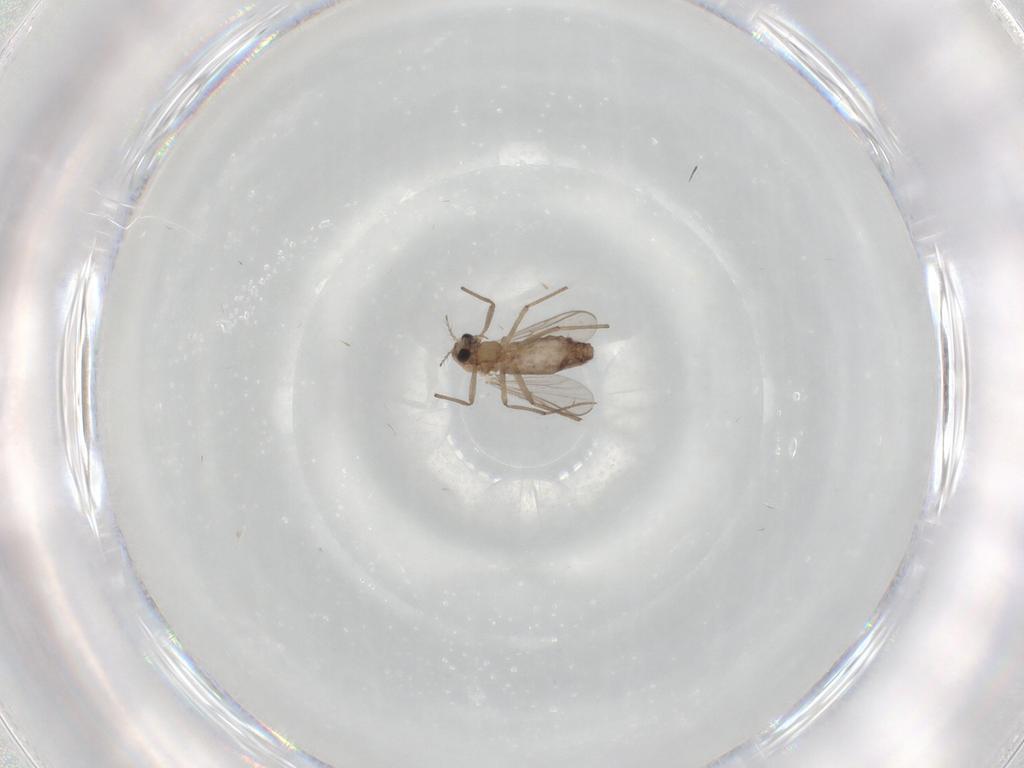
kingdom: Animalia
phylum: Arthropoda
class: Insecta
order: Diptera
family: Chironomidae
